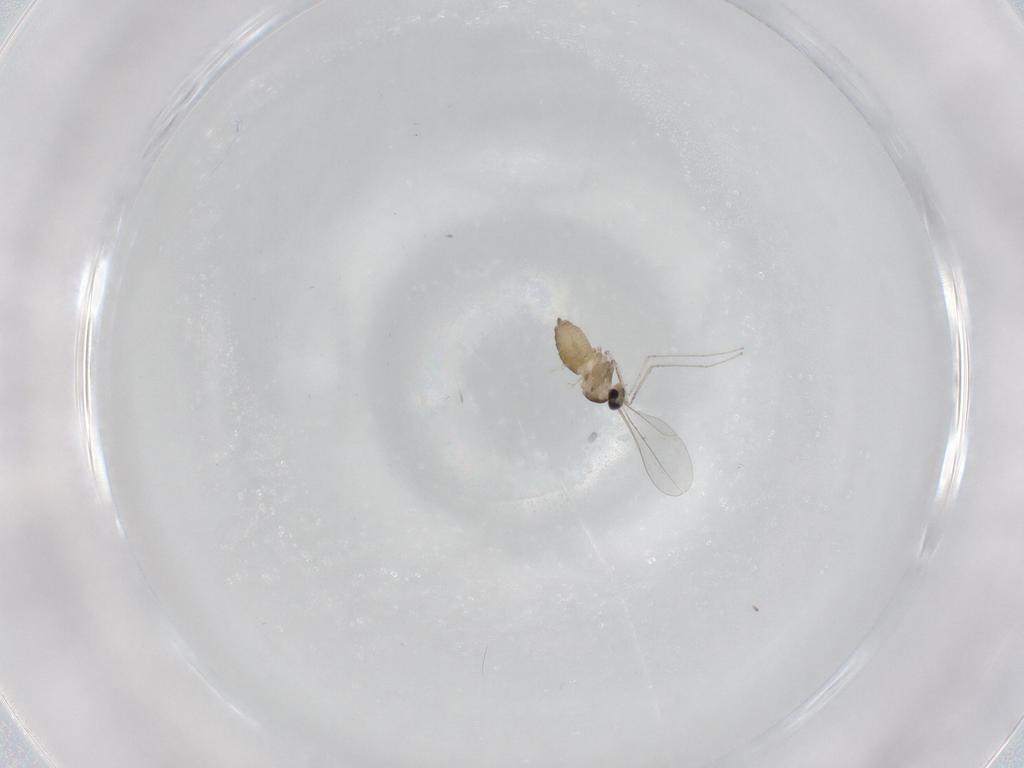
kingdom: Animalia
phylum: Arthropoda
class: Insecta
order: Diptera
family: Cecidomyiidae
